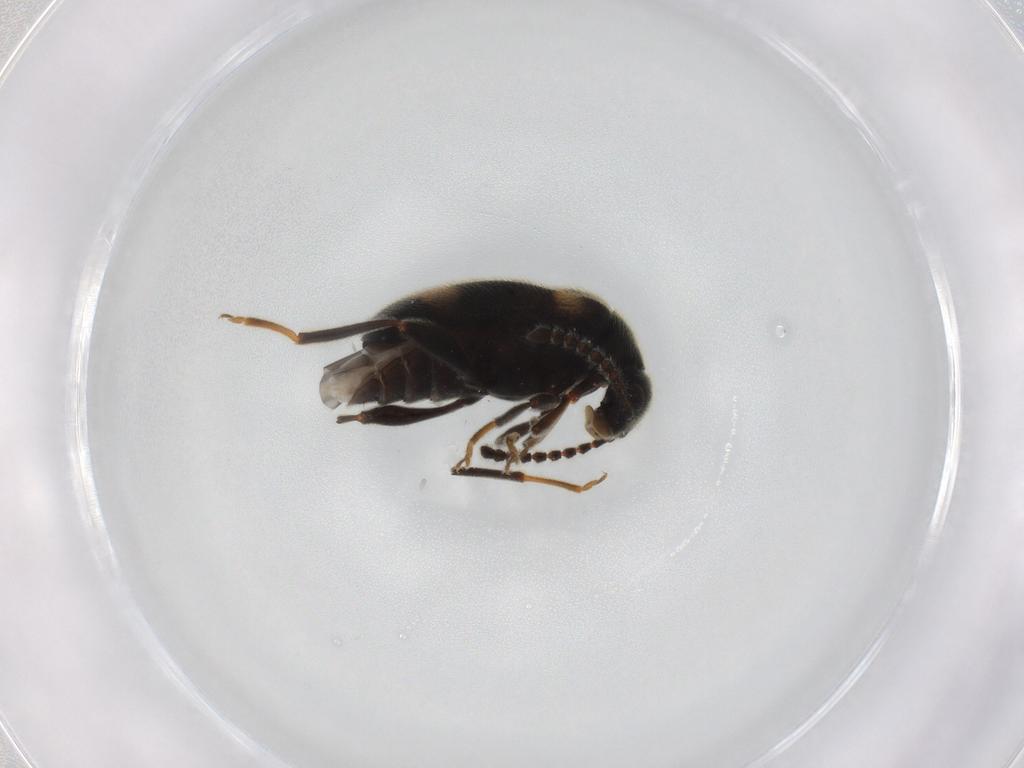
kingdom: Animalia
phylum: Arthropoda
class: Insecta
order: Coleoptera
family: Aderidae
